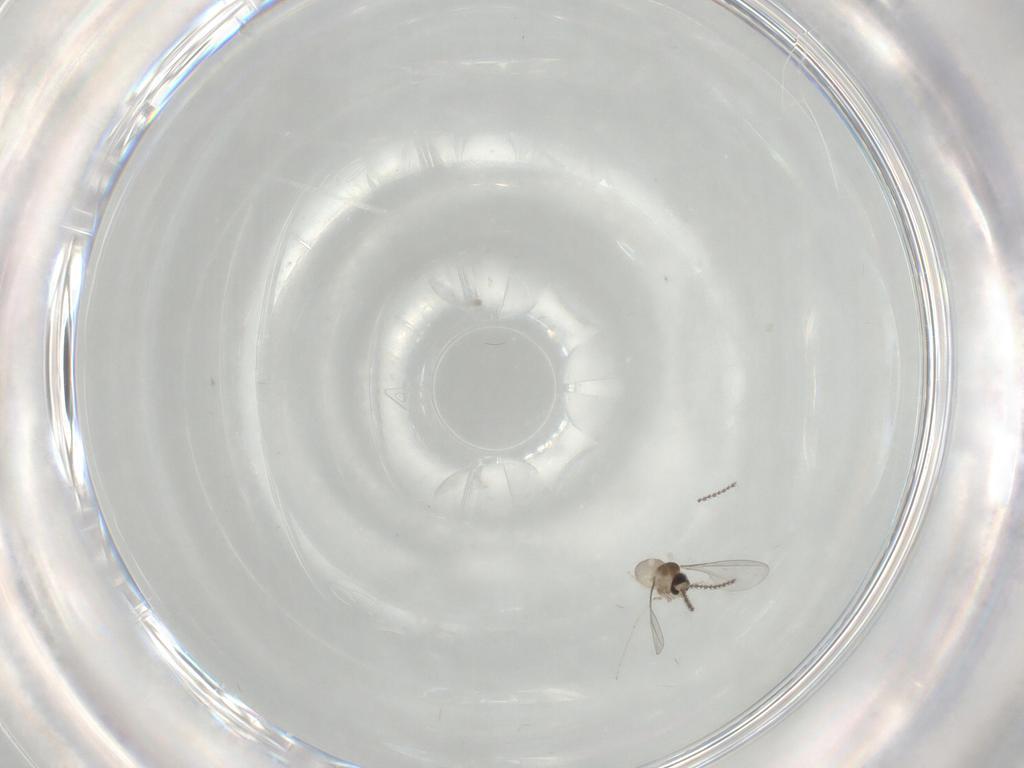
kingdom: Animalia
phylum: Arthropoda
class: Insecta
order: Diptera
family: Cecidomyiidae
